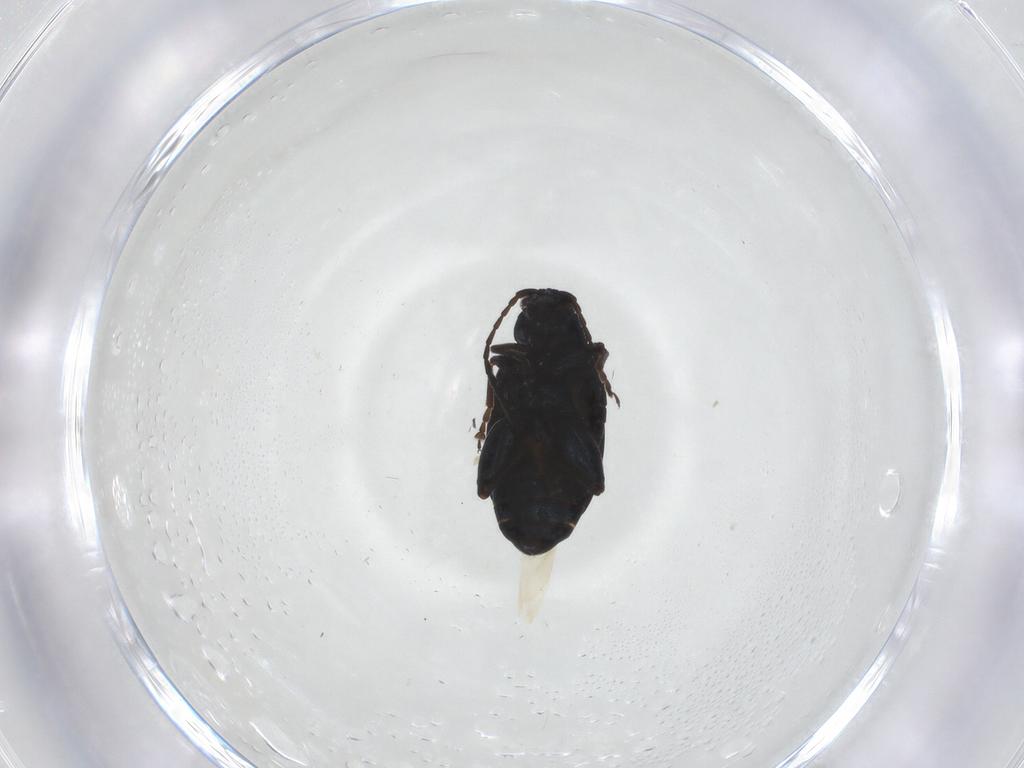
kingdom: Animalia
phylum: Arthropoda
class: Insecta
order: Coleoptera
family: Chrysomelidae
